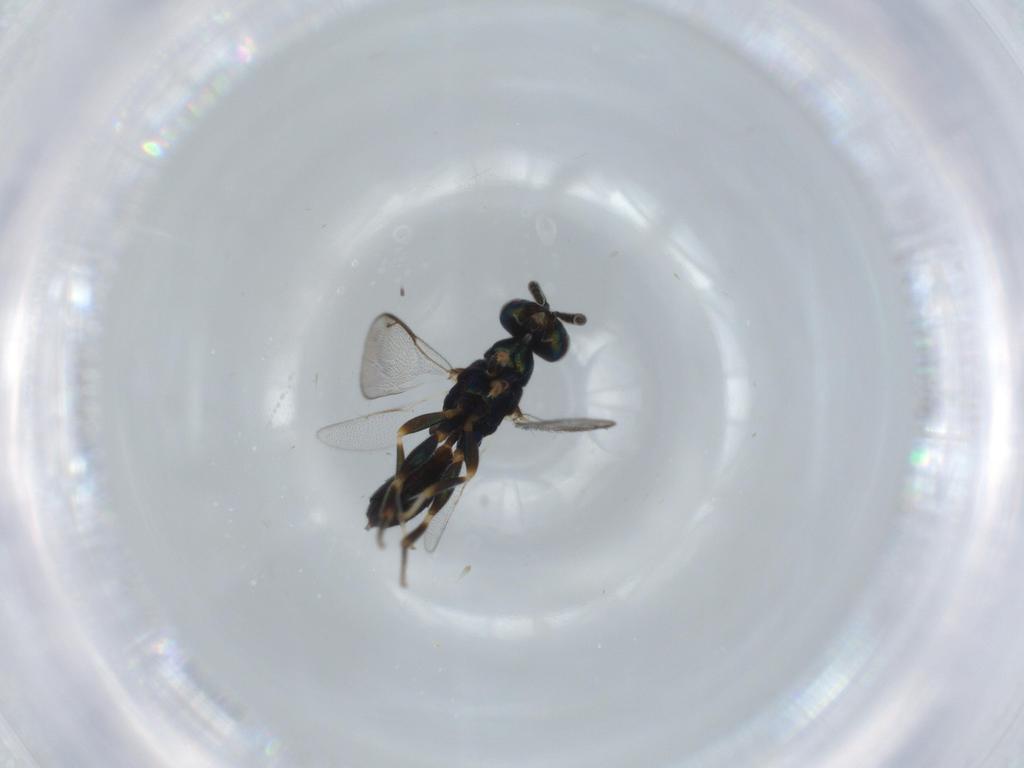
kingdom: Animalia
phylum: Arthropoda
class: Insecta
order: Hymenoptera
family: Cleonyminae
